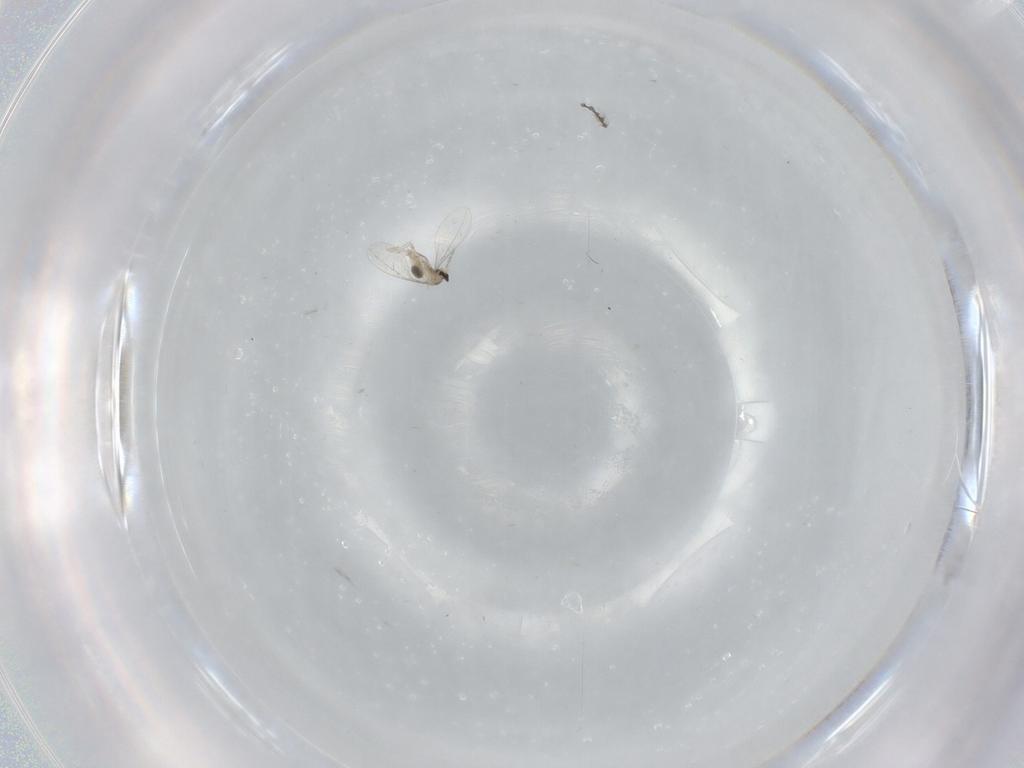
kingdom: Animalia
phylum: Arthropoda
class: Insecta
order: Diptera
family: Cecidomyiidae
